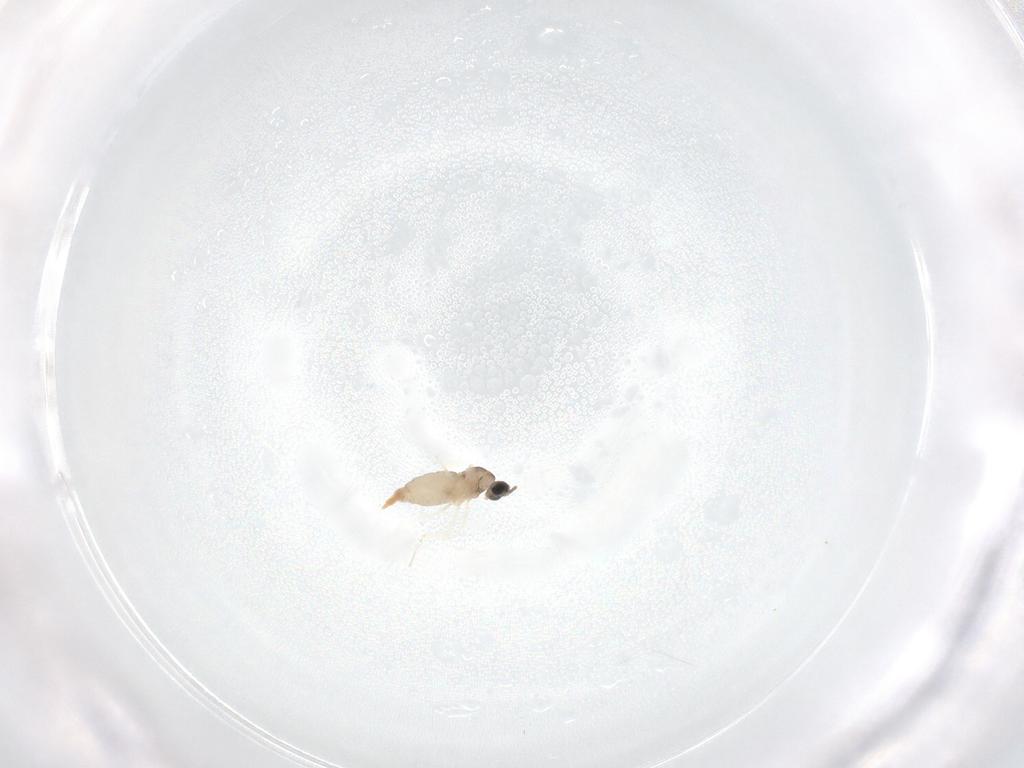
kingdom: Animalia
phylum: Arthropoda
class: Insecta
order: Diptera
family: Cecidomyiidae
